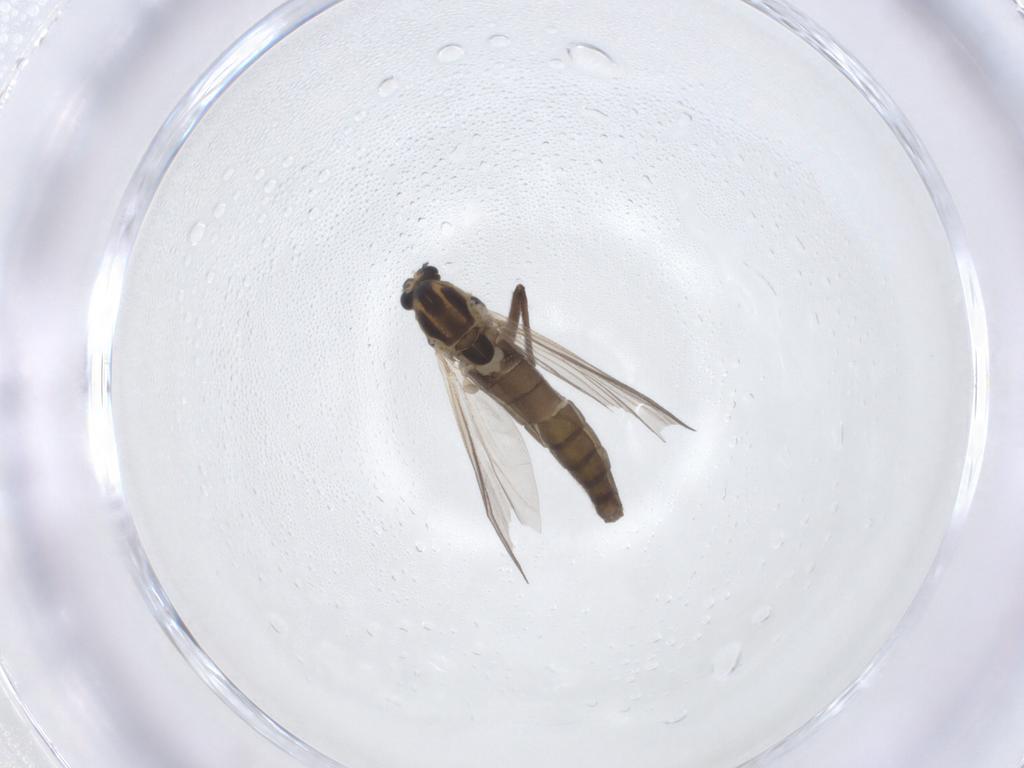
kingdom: Animalia
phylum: Arthropoda
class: Insecta
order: Diptera
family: Chironomidae
